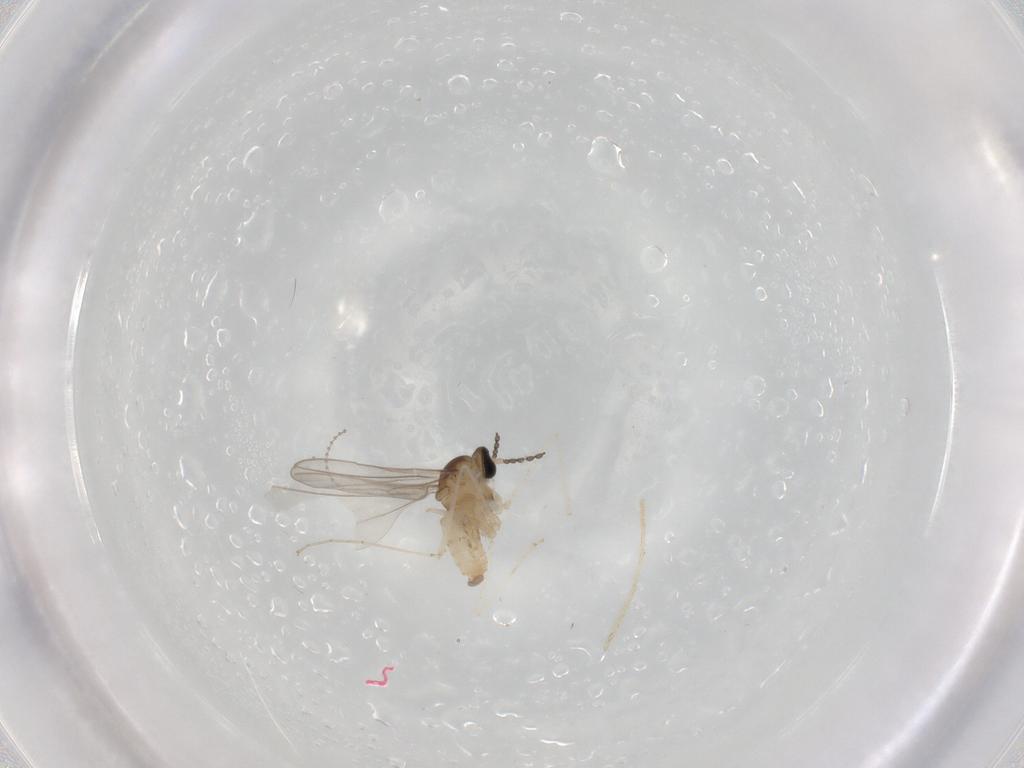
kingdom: Animalia
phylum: Arthropoda
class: Insecta
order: Diptera
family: Cecidomyiidae
